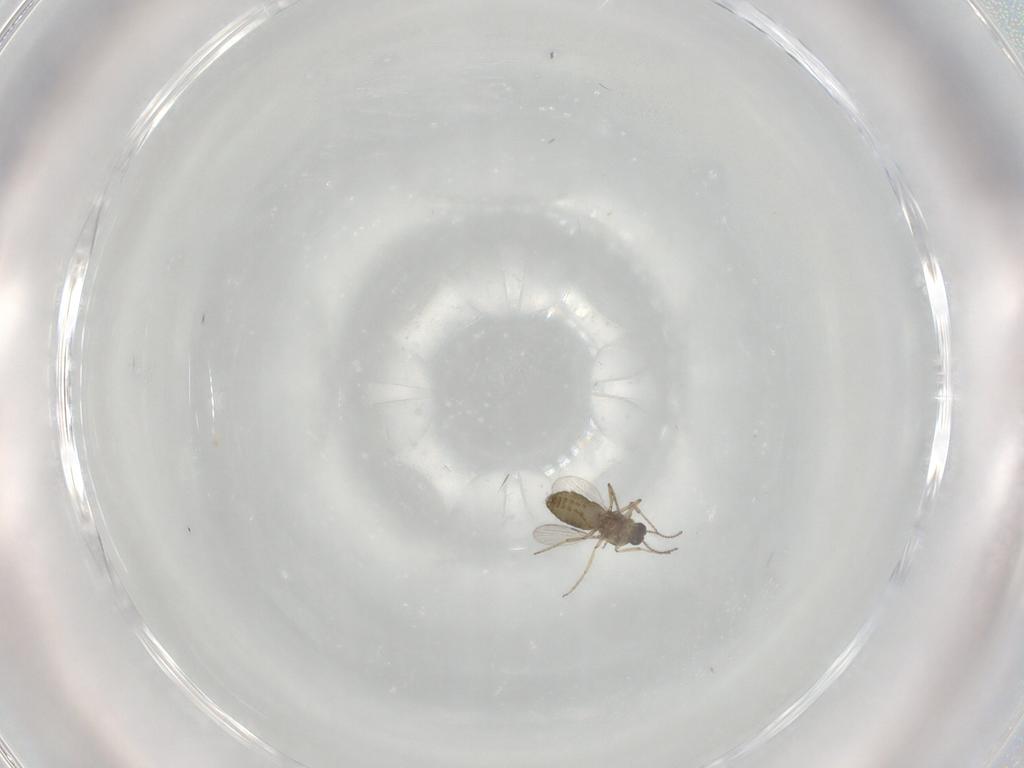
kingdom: Animalia
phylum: Arthropoda
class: Insecta
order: Diptera
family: Ceratopogonidae
